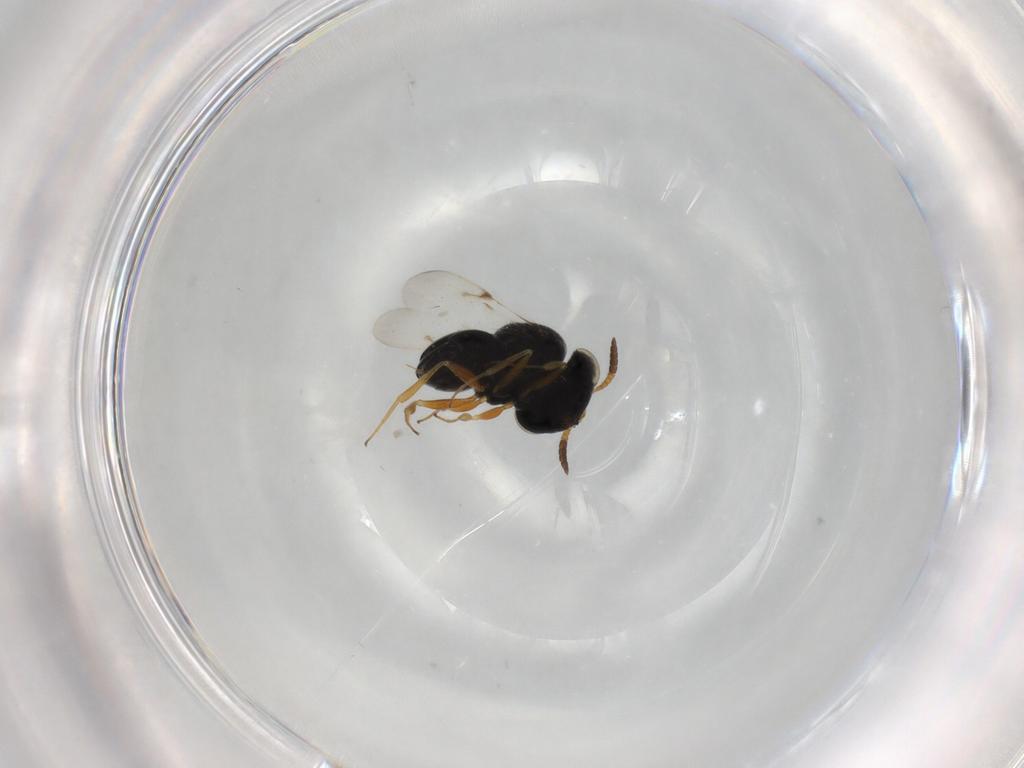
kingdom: Animalia
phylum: Arthropoda
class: Insecta
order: Hymenoptera
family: Scelionidae
